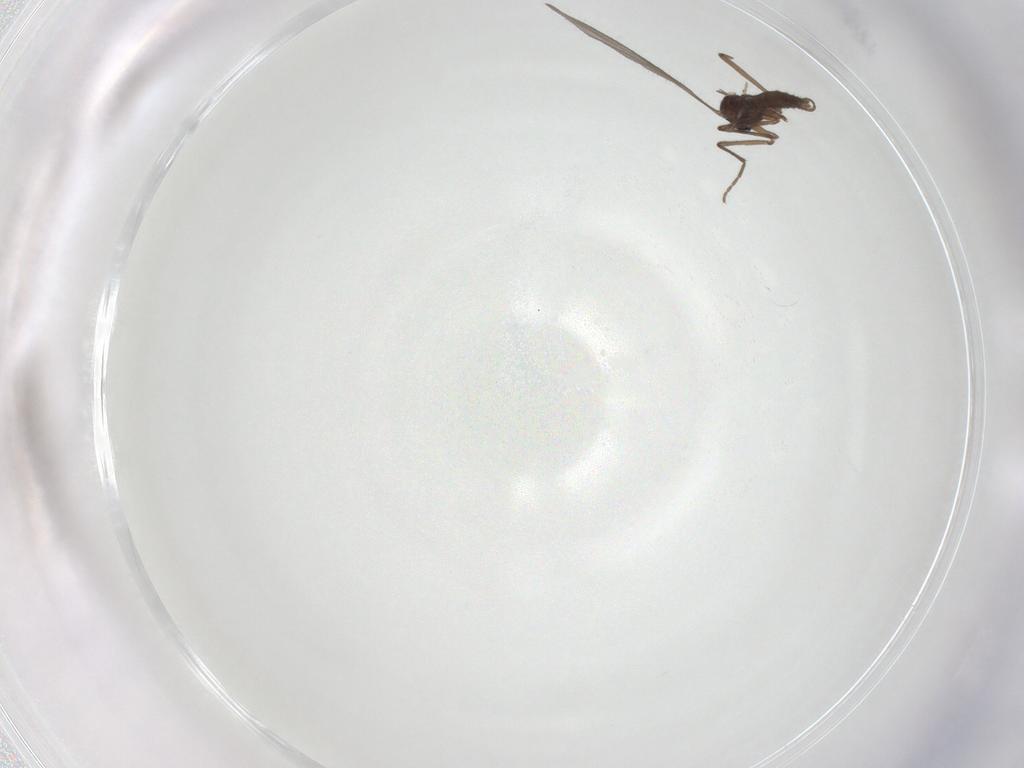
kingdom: Animalia
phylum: Arthropoda
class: Insecta
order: Diptera
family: Sciaridae
